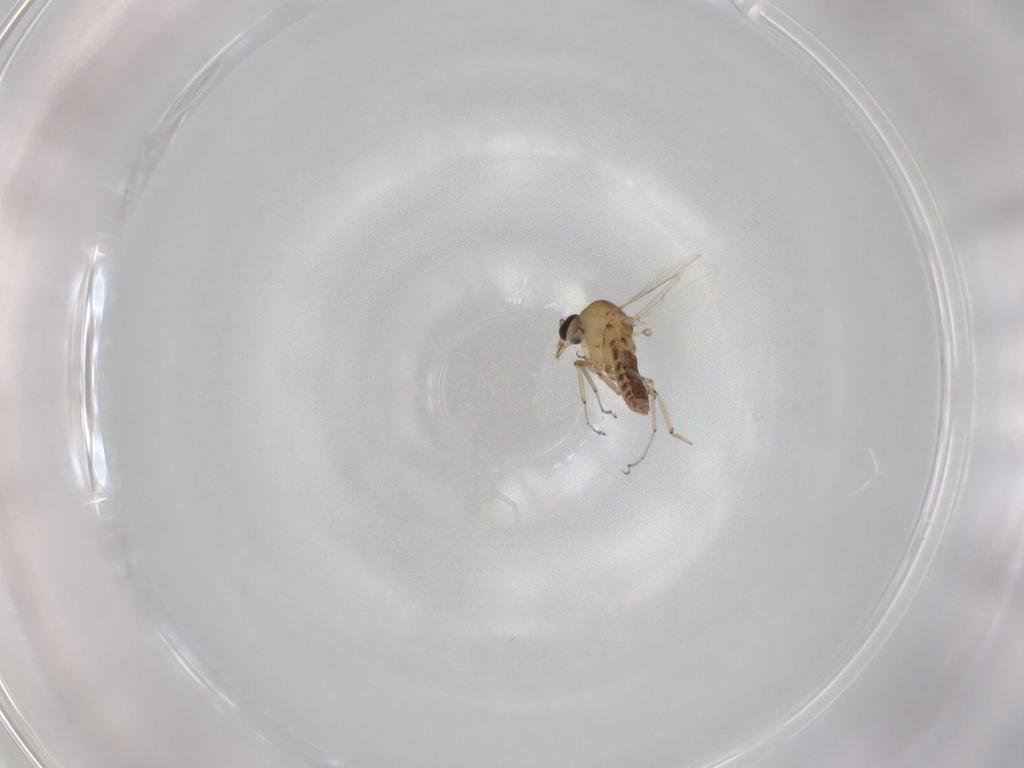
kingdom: Animalia
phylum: Arthropoda
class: Insecta
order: Diptera
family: Ceratopogonidae
